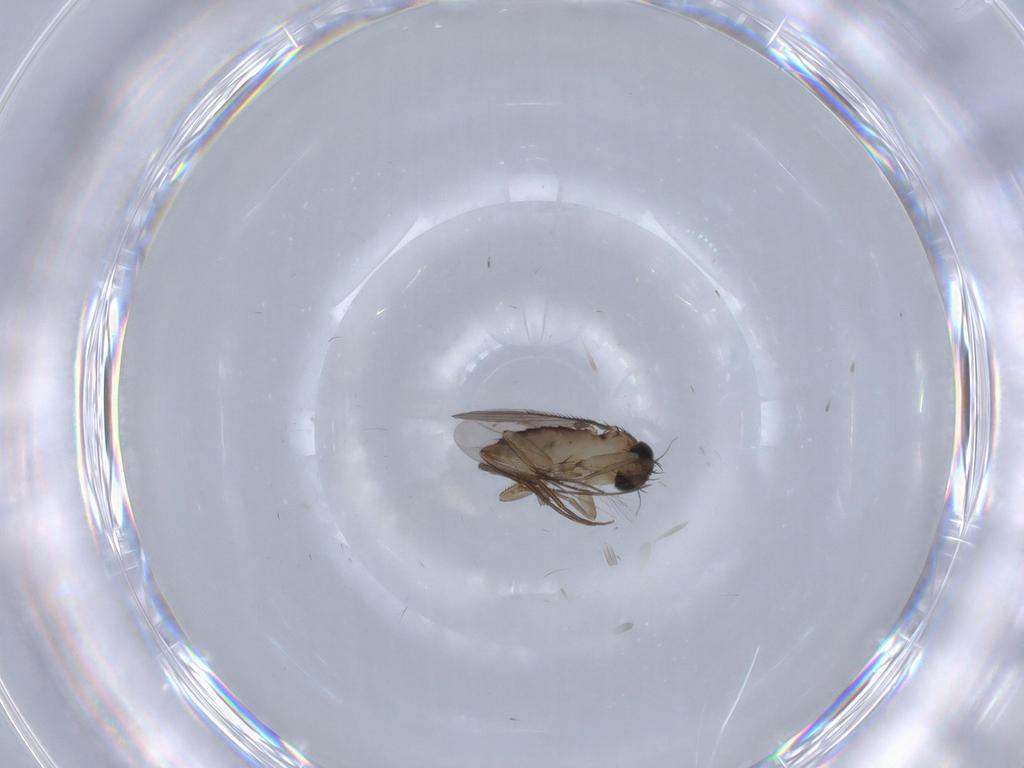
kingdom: Animalia
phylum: Arthropoda
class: Insecta
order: Diptera
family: Phoridae
